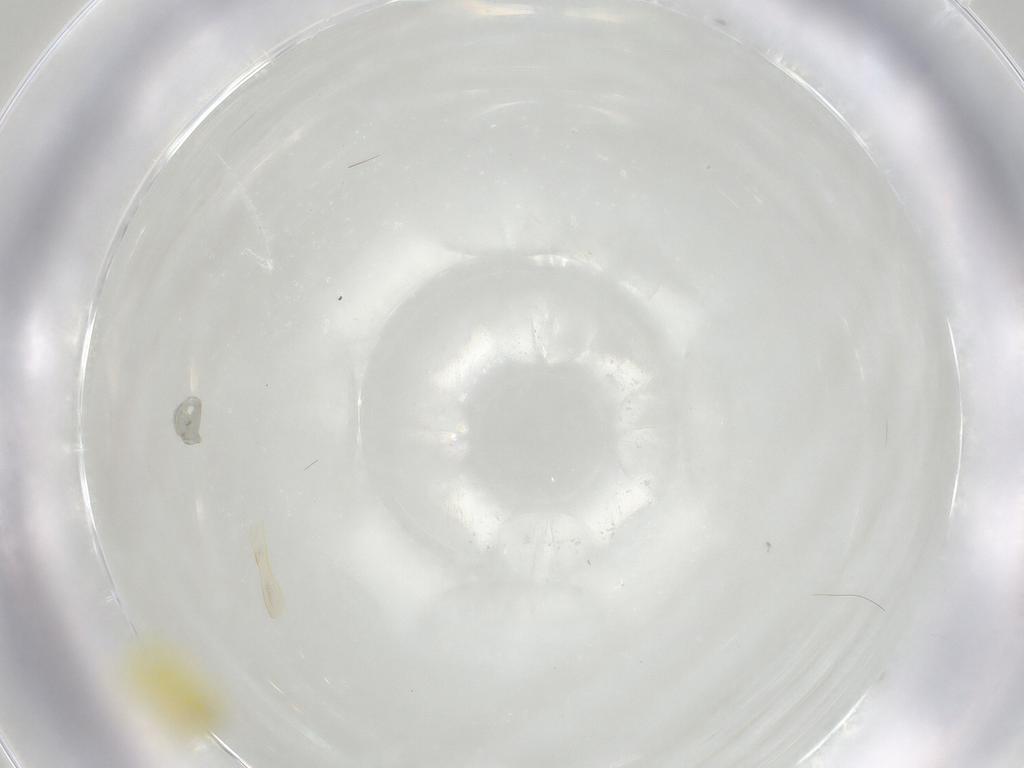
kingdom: Animalia
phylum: Arthropoda
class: Insecta
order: Hemiptera
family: Aleyrodidae
